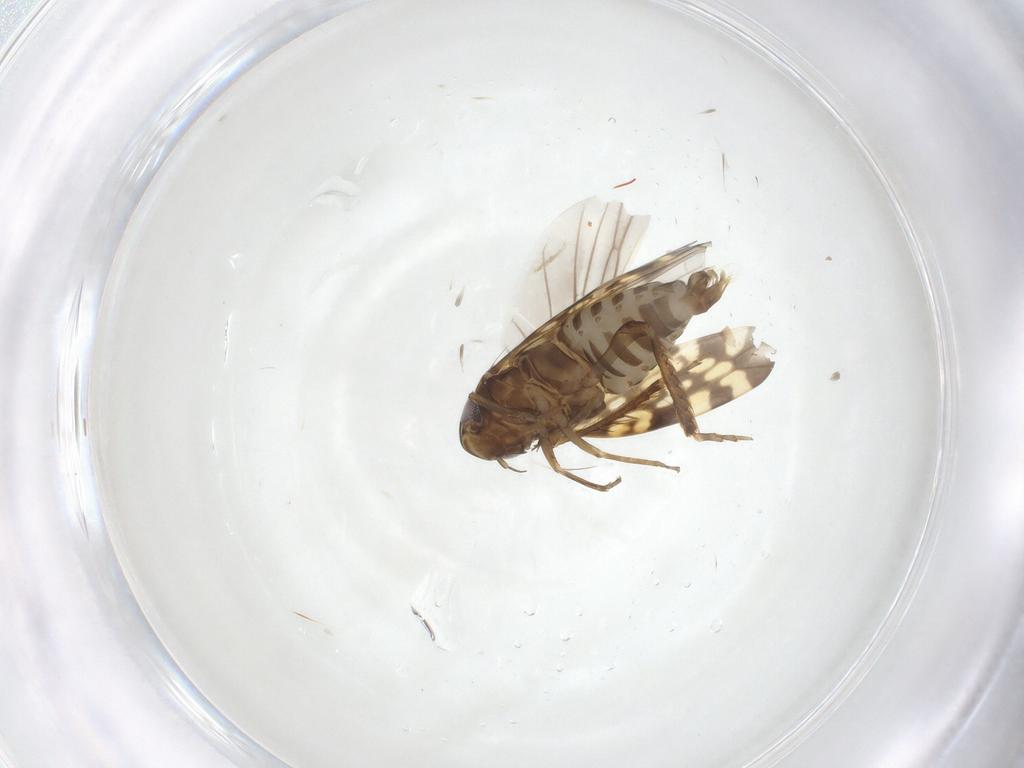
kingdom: Animalia
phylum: Arthropoda
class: Insecta
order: Hemiptera
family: Cicadellidae
